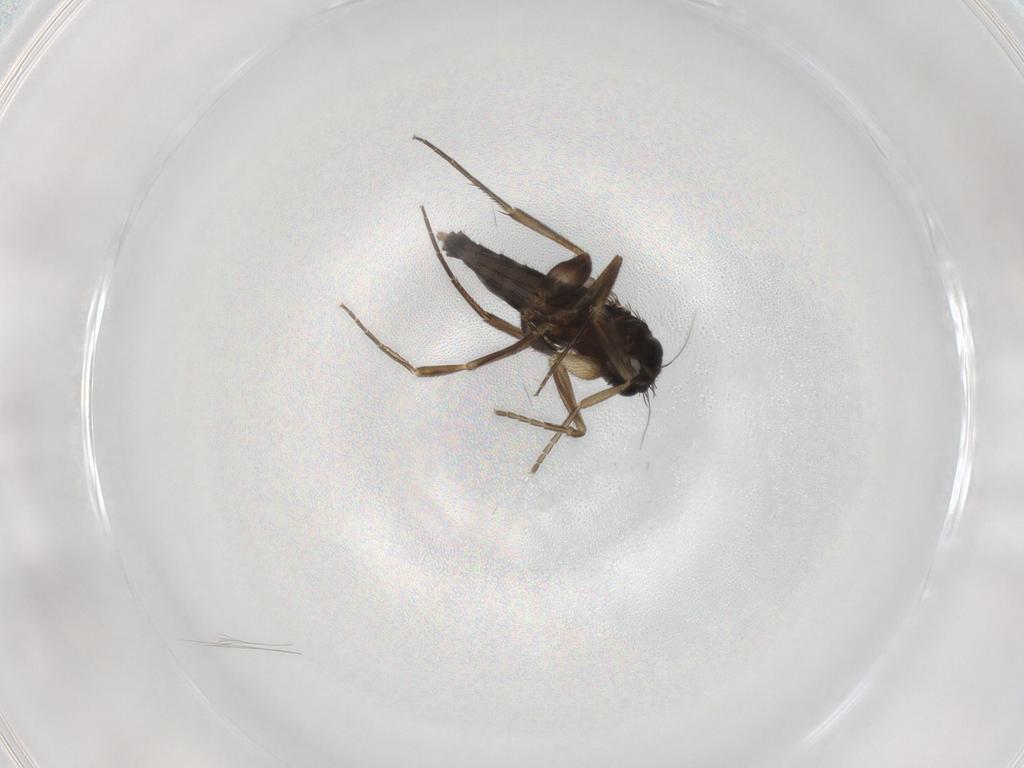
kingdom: Animalia
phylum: Arthropoda
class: Insecta
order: Diptera
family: Phoridae
